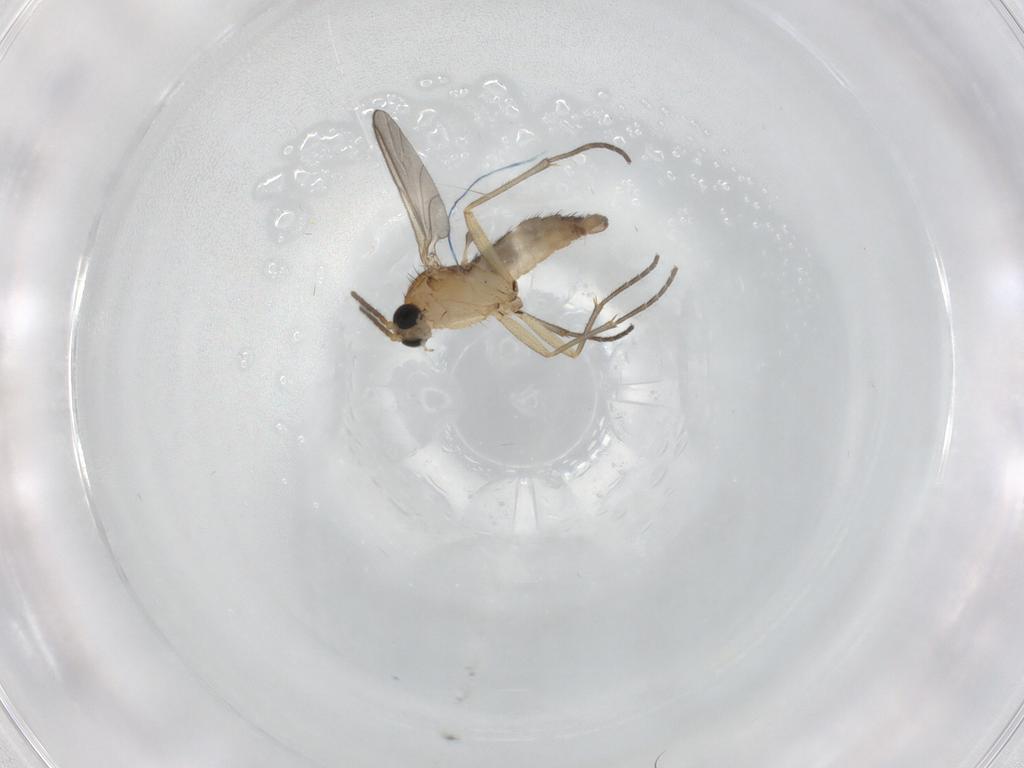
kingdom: Animalia
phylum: Arthropoda
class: Insecta
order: Diptera
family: Sciaridae
